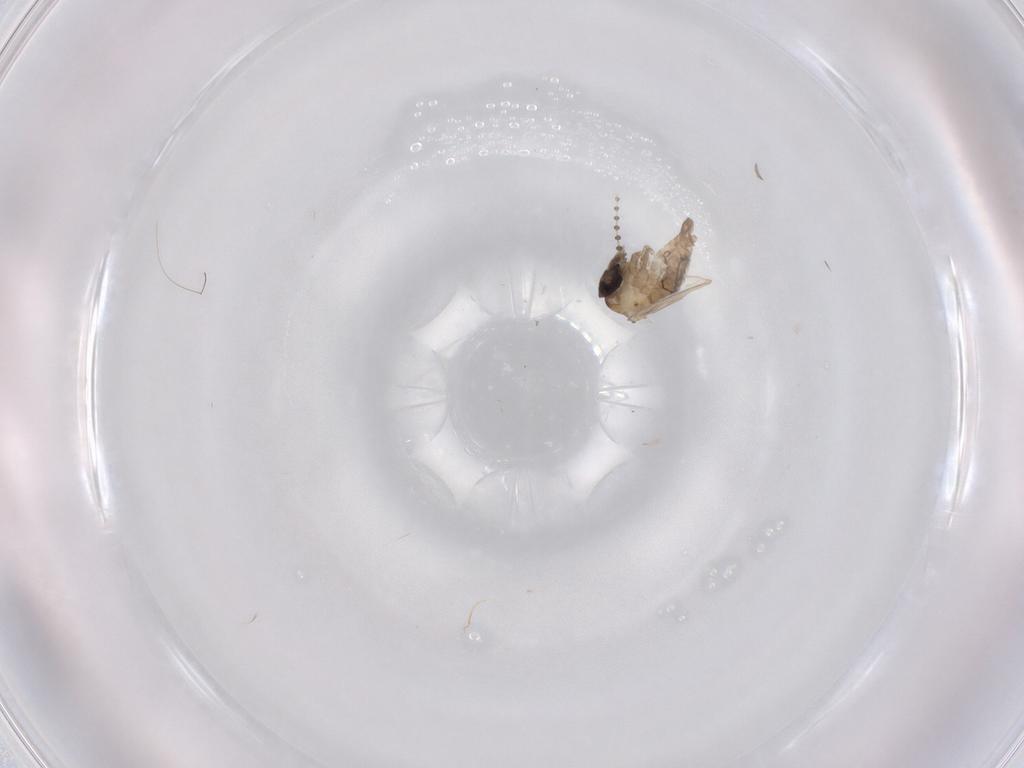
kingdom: Animalia
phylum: Arthropoda
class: Insecta
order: Diptera
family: Psychodidae
